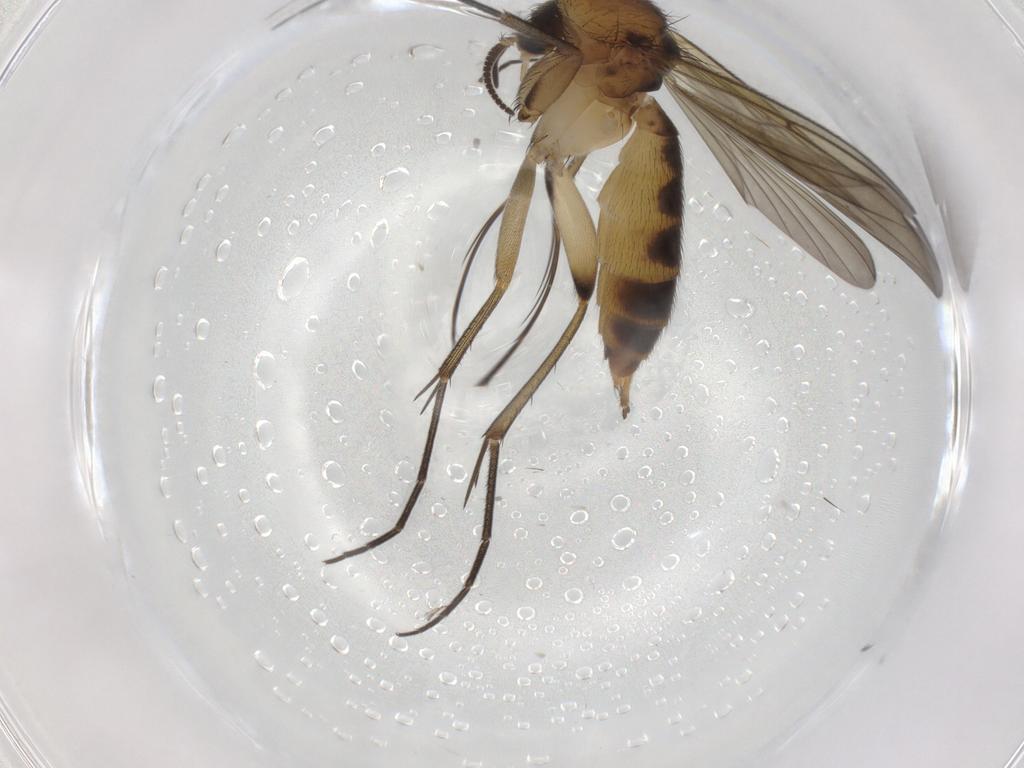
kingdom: Animalia
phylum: Arthropoda
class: Insecta
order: Diptera
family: Mycetophilidae
